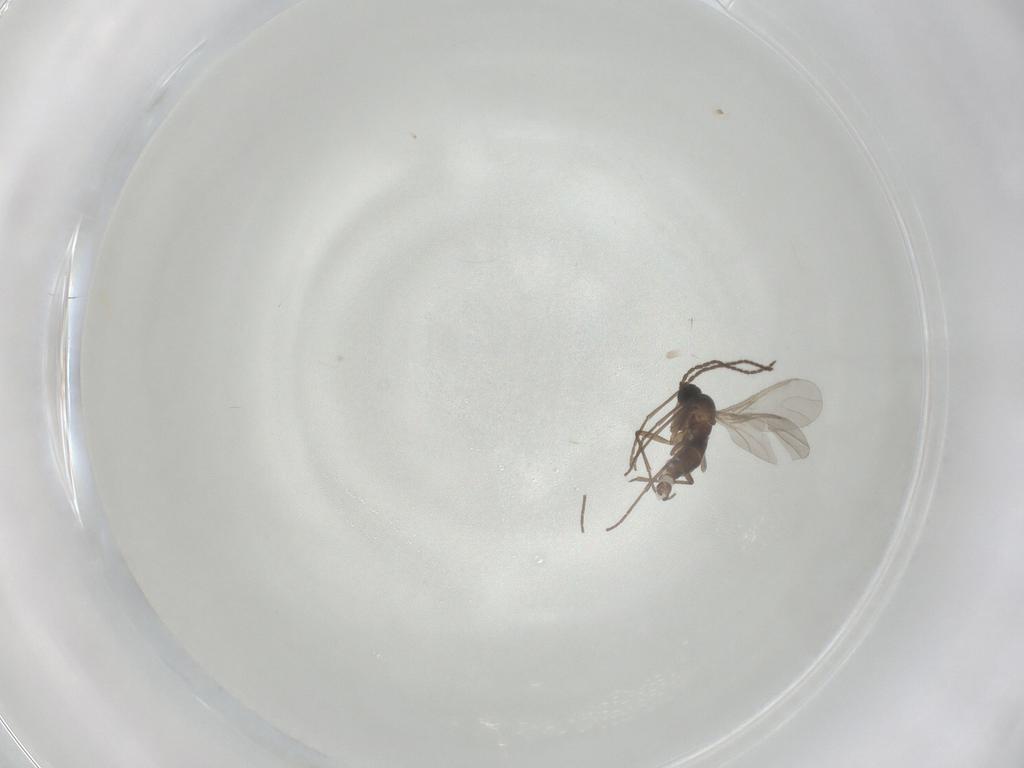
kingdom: Animalia
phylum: Arthropoda
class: Insecta
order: Diptera
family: Sciaridae
